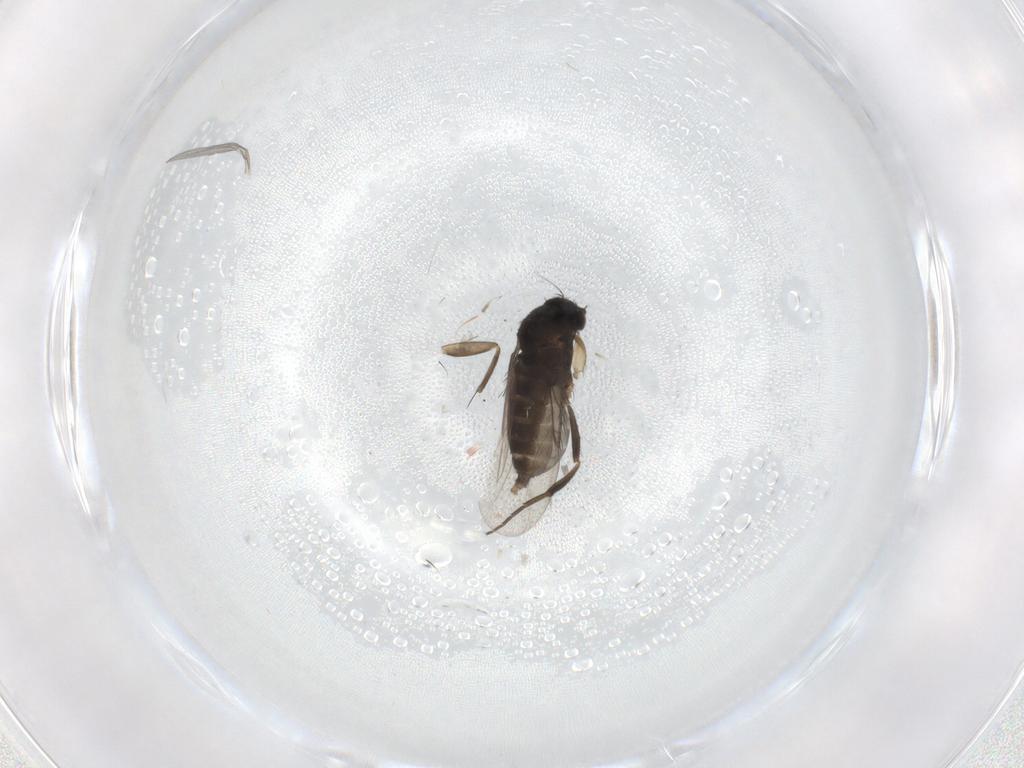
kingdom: Animalia
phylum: Arthropoda
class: Insecta
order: Diptera
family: Phoridae
